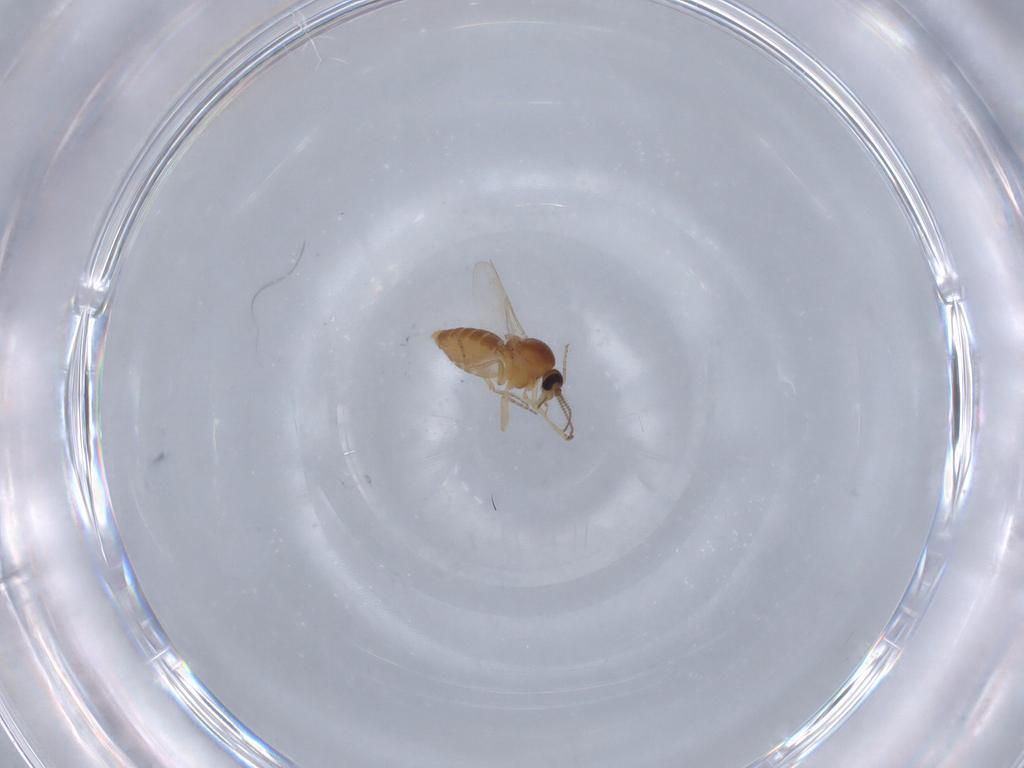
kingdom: Animalia
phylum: Arthropoda
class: Insecta
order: Diptera
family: Ceratopogonidae
